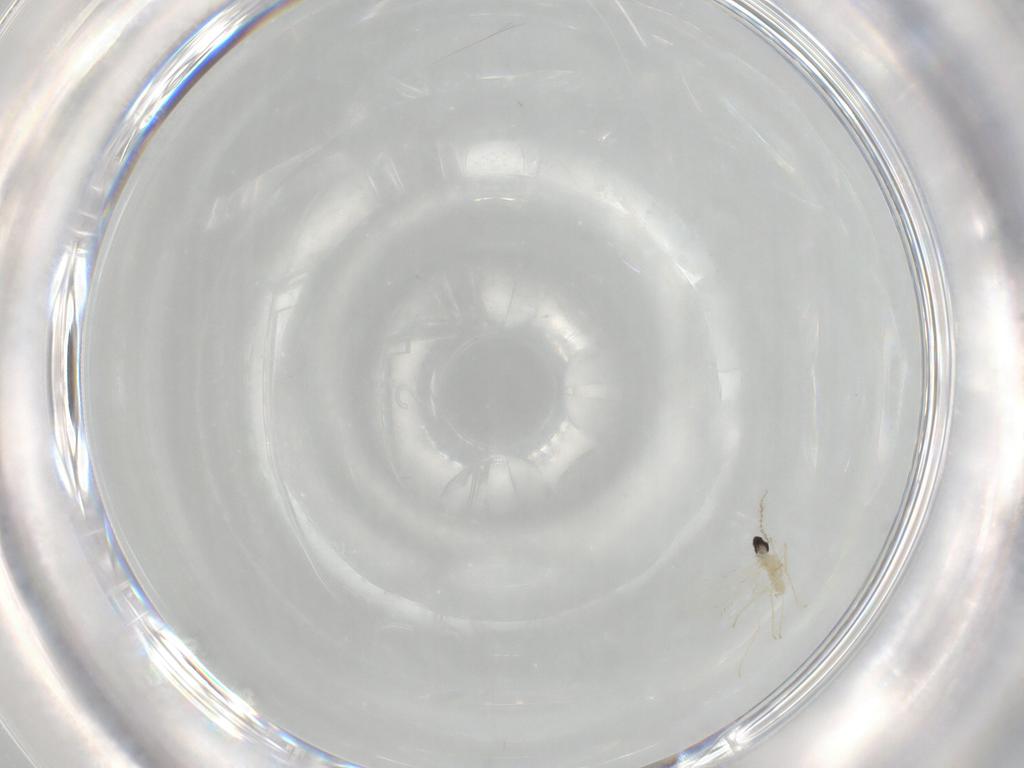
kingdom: Animalia
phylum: Arthropoda
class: Insecta
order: Diptera
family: Cecidomyiidae
